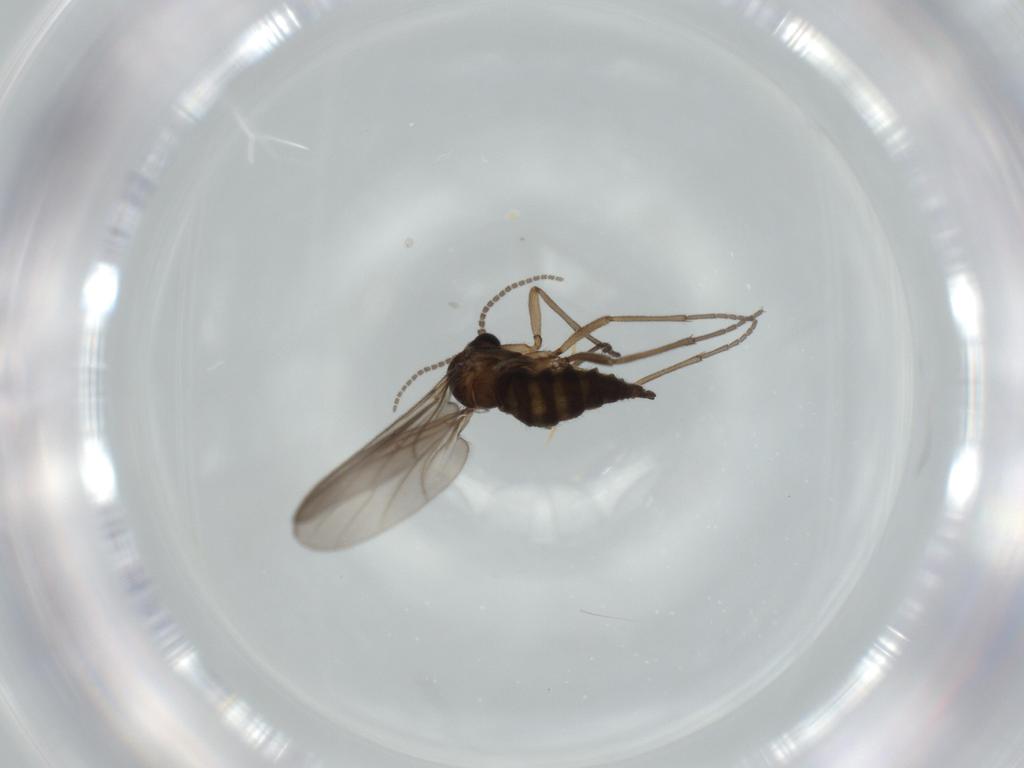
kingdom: Animalia
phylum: Arthropoda
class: Insecta
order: Diptera
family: Sciaridae
